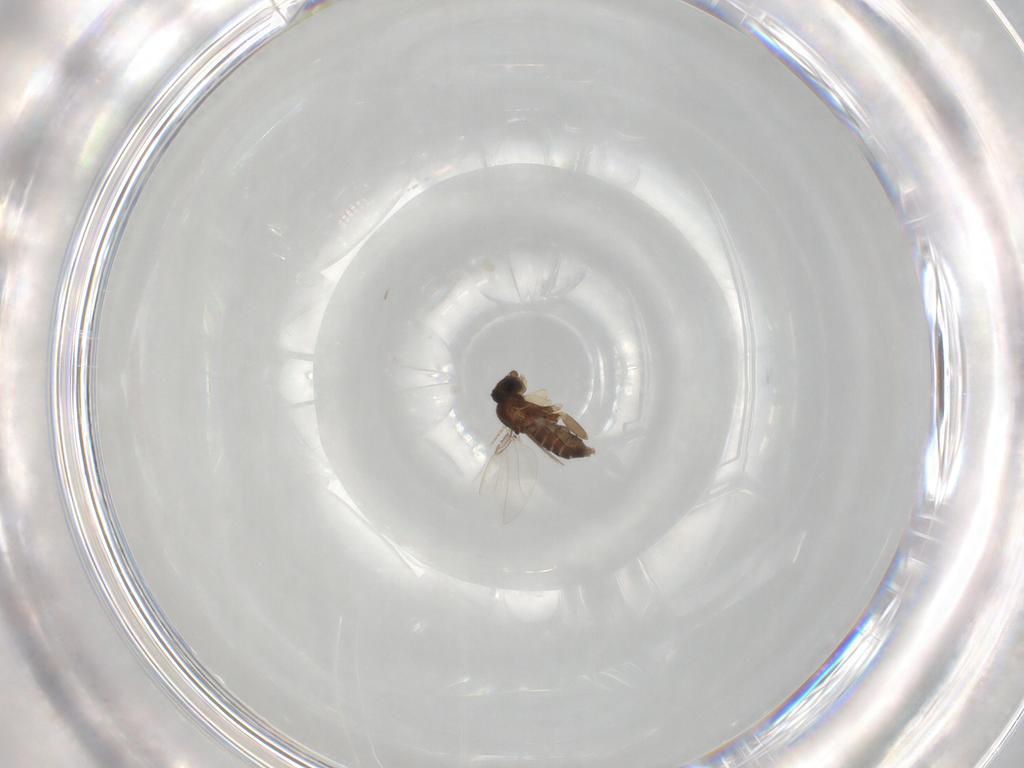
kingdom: Animalia
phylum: Arthropoda
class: Insecta
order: Diptera
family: Phoridae
